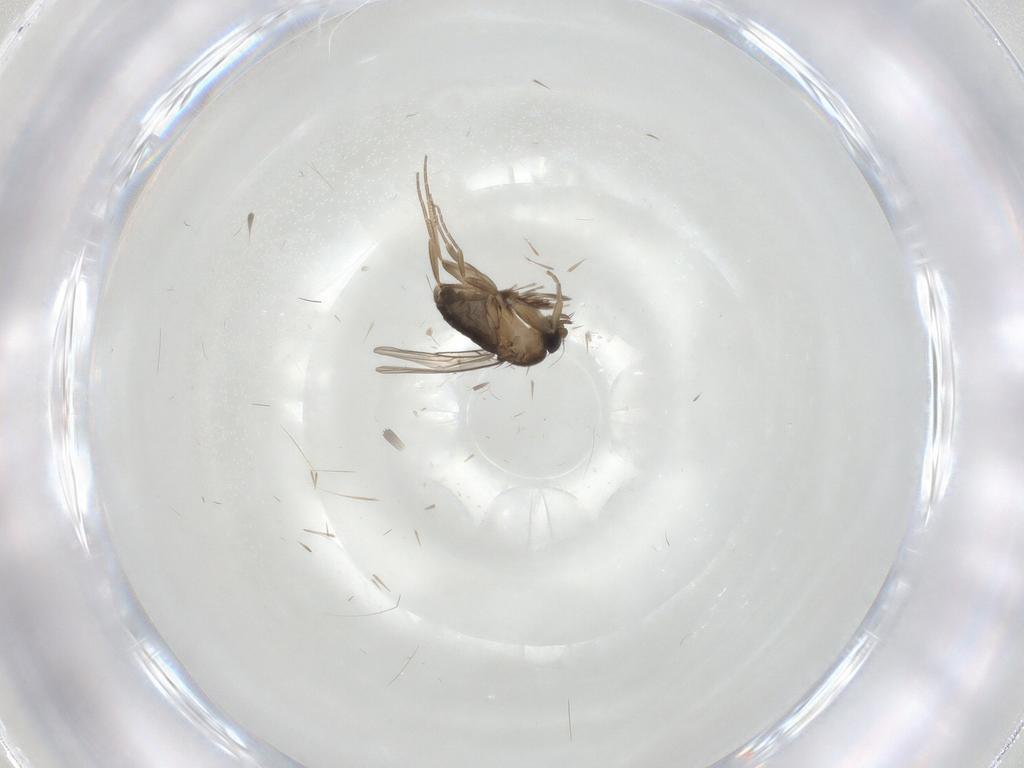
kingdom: Animalia
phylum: Arthropoda
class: Insecta
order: Diptera
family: Phoridae
